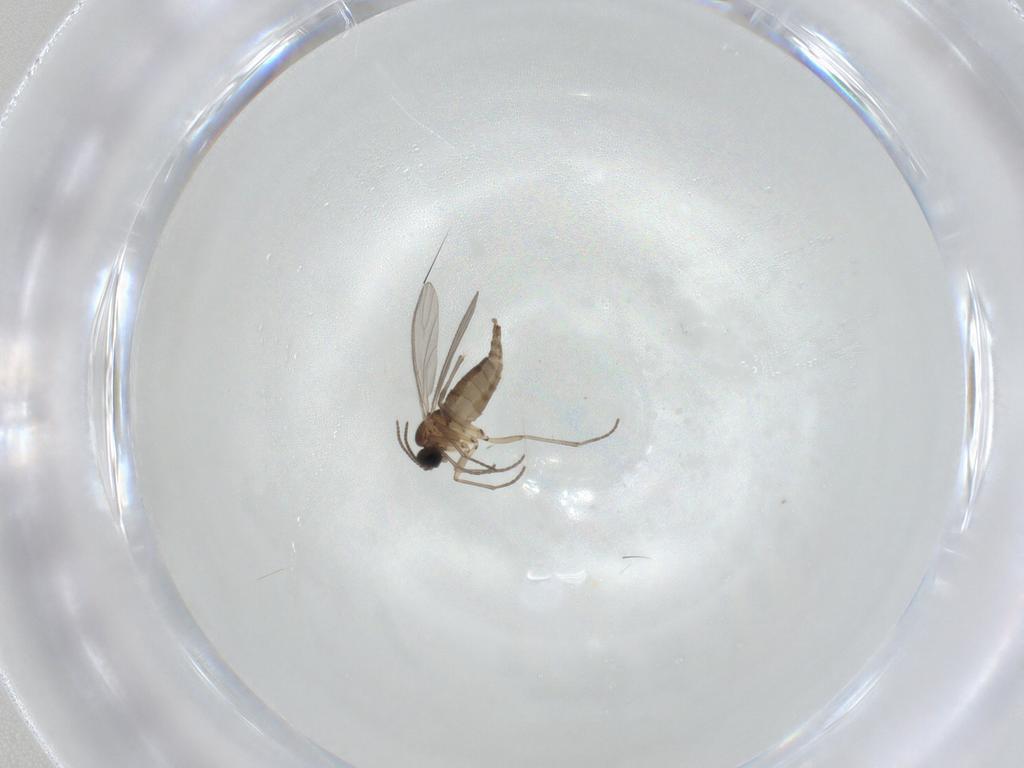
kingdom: Animalia
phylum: Arthropoda
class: Insecta
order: Diptera
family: Sciaridae
